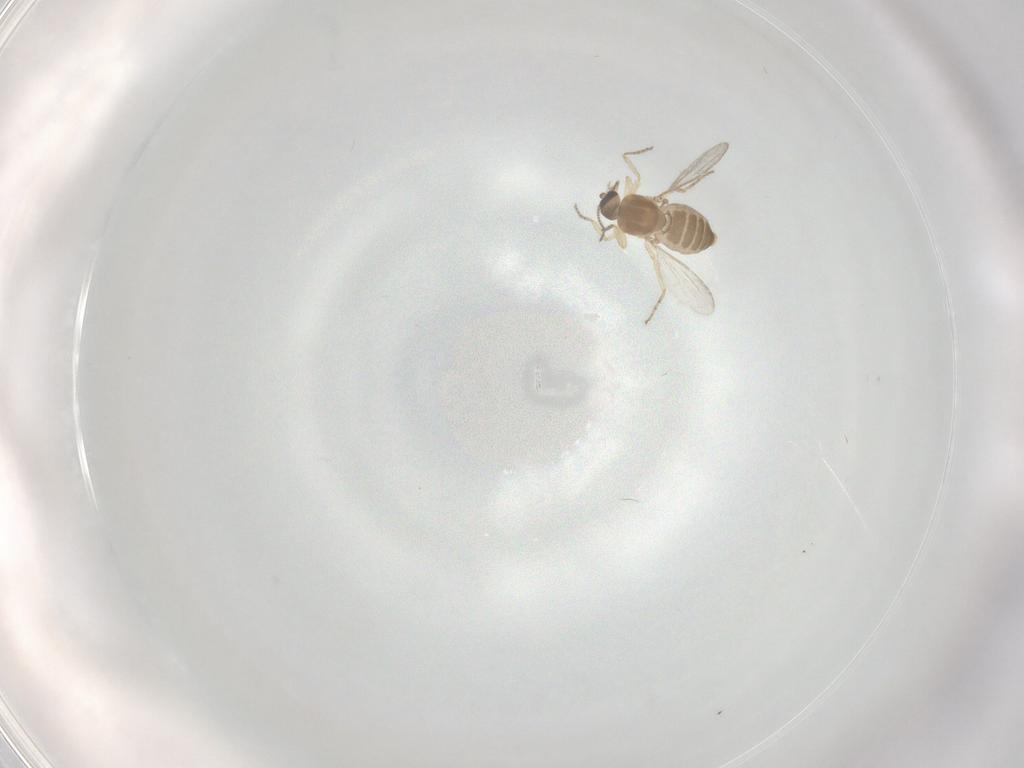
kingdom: Animalia
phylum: Arthropoda
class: Insecta
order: Diptera
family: Ceratopogonidae
